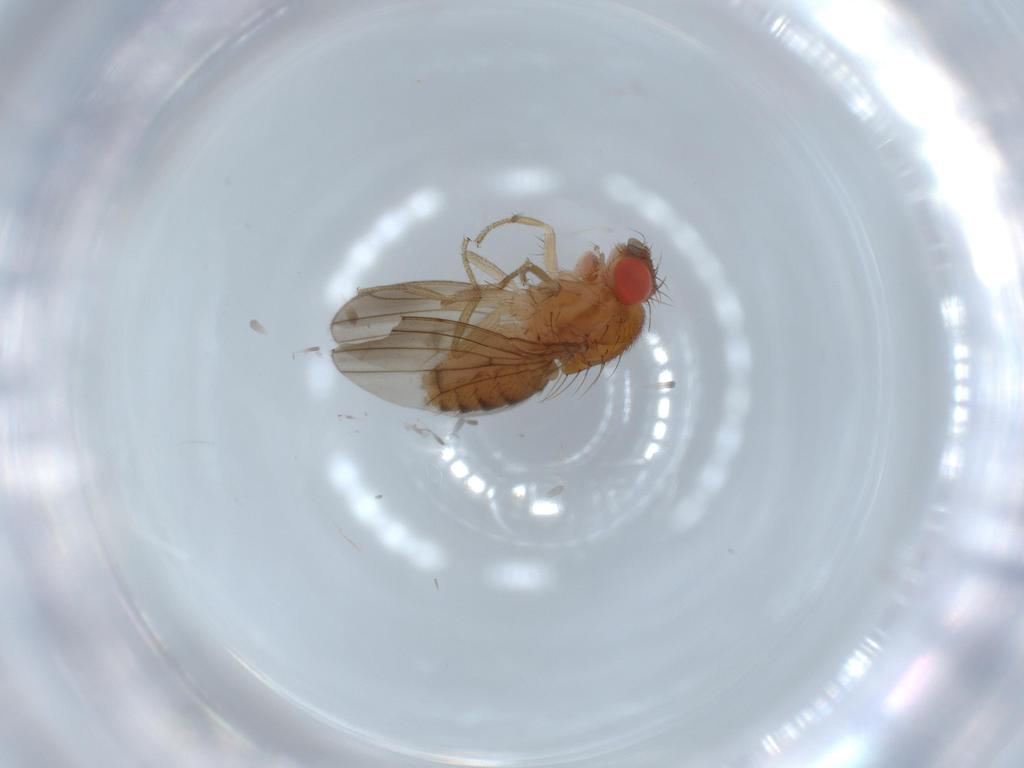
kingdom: Animalia
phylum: Arthropoda
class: Insecta
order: Diptera
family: Drosophilidae
